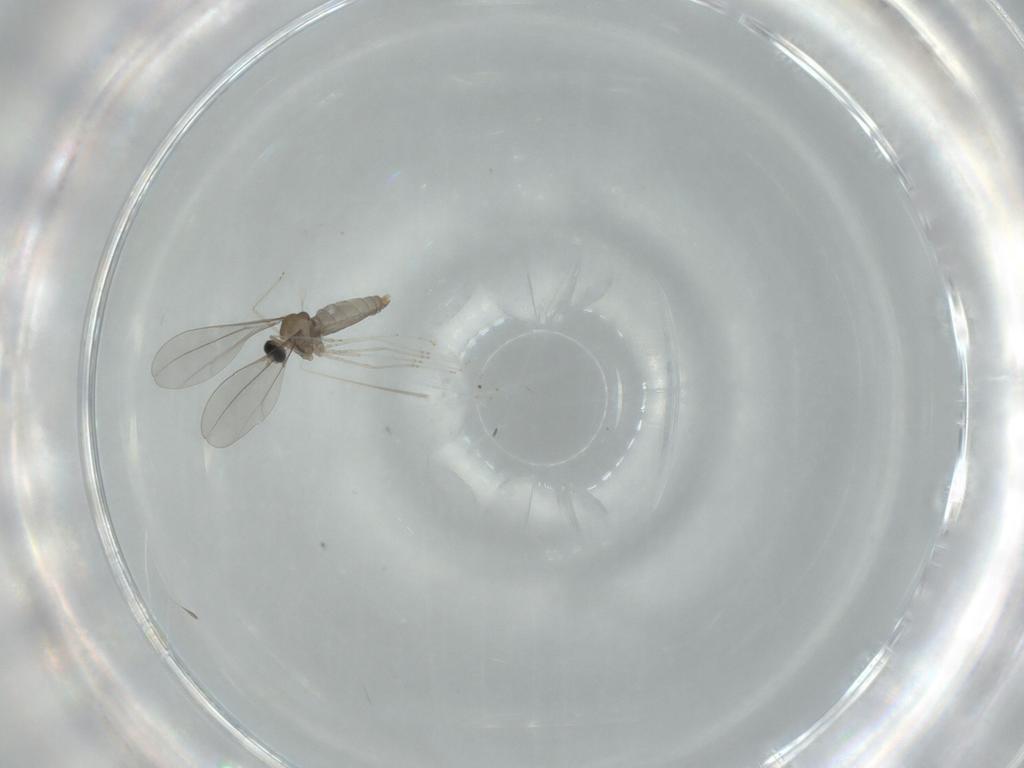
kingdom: Animalia
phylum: Arthropoda
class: Insecta
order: Diptera
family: Cecidomyiidae
